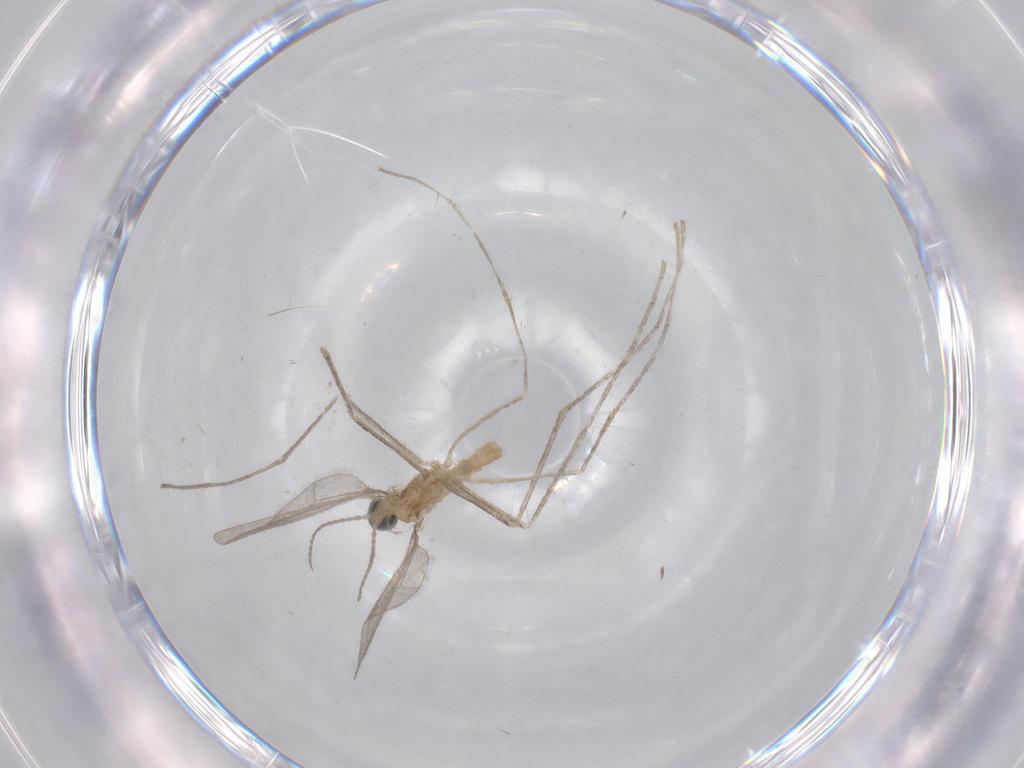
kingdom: Animalia
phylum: Arthropoda
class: Insecta
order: Diptera
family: Cecidomyiidae
